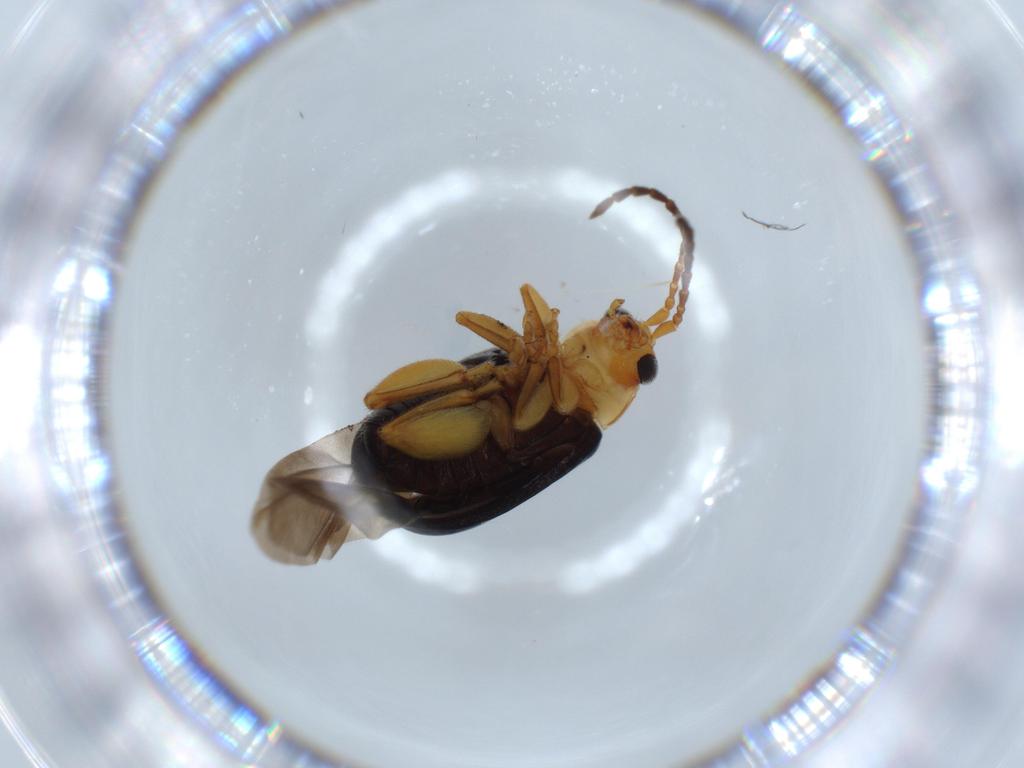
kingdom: Animalia
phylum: Arthropoda
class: Insecta
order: Coleoptera
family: Chrysomelidae
